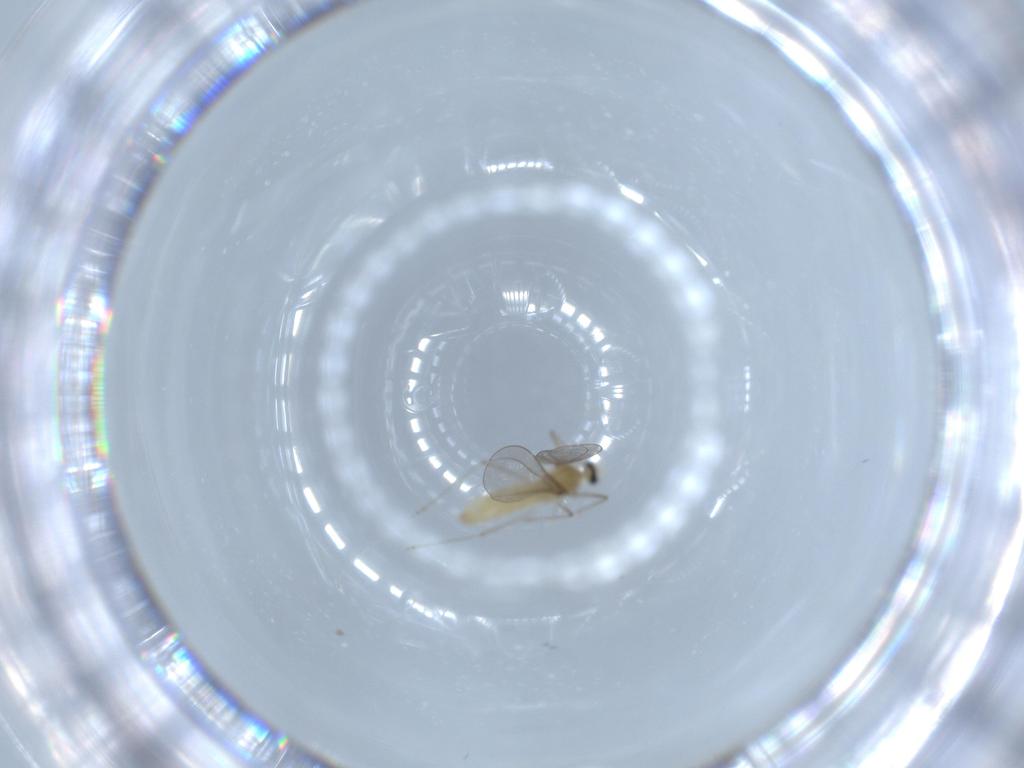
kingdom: Animalia
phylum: Arthropoda
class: Insecta
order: Diptera
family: Cecidomyiidae
